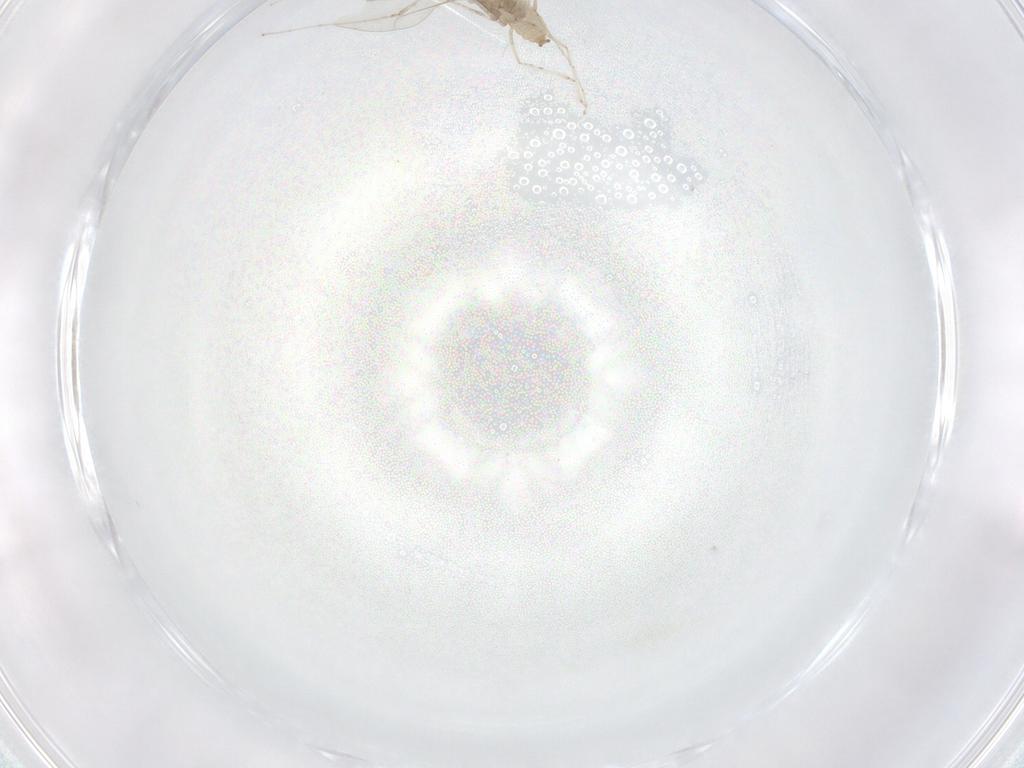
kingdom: Animalia
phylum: Arthropoda
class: Insecta
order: Diptera
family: Cecidomyiidae
